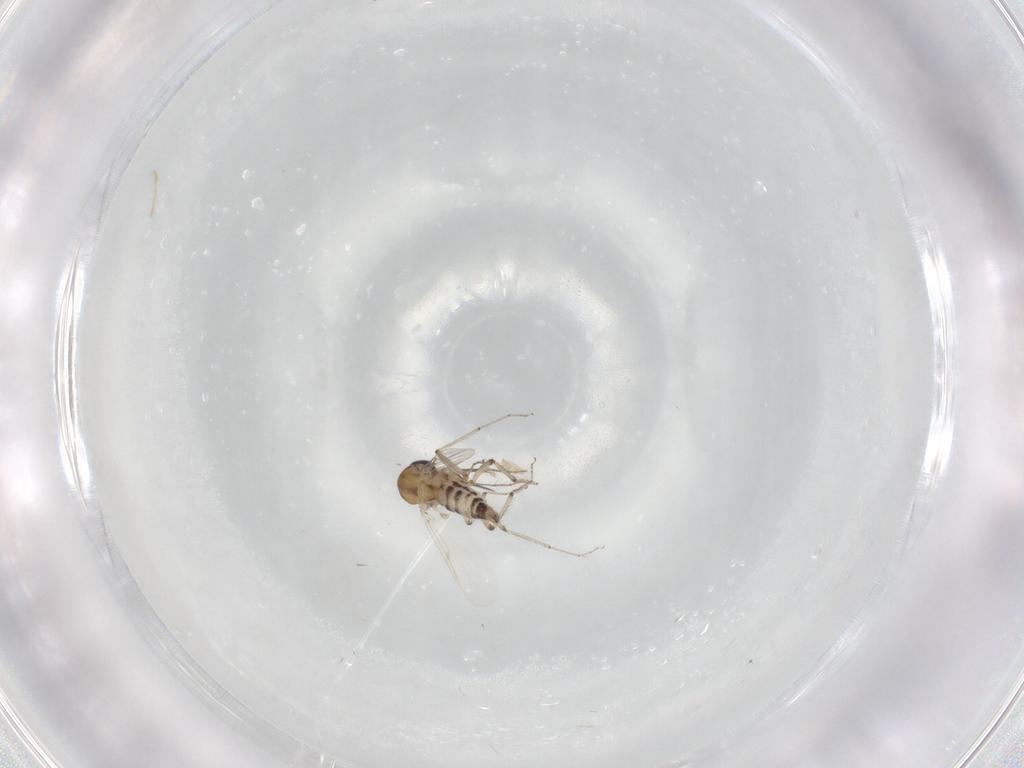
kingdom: Animalia
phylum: Arthropoda
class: Insecta
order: Diptera
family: Ceratopogonidae
